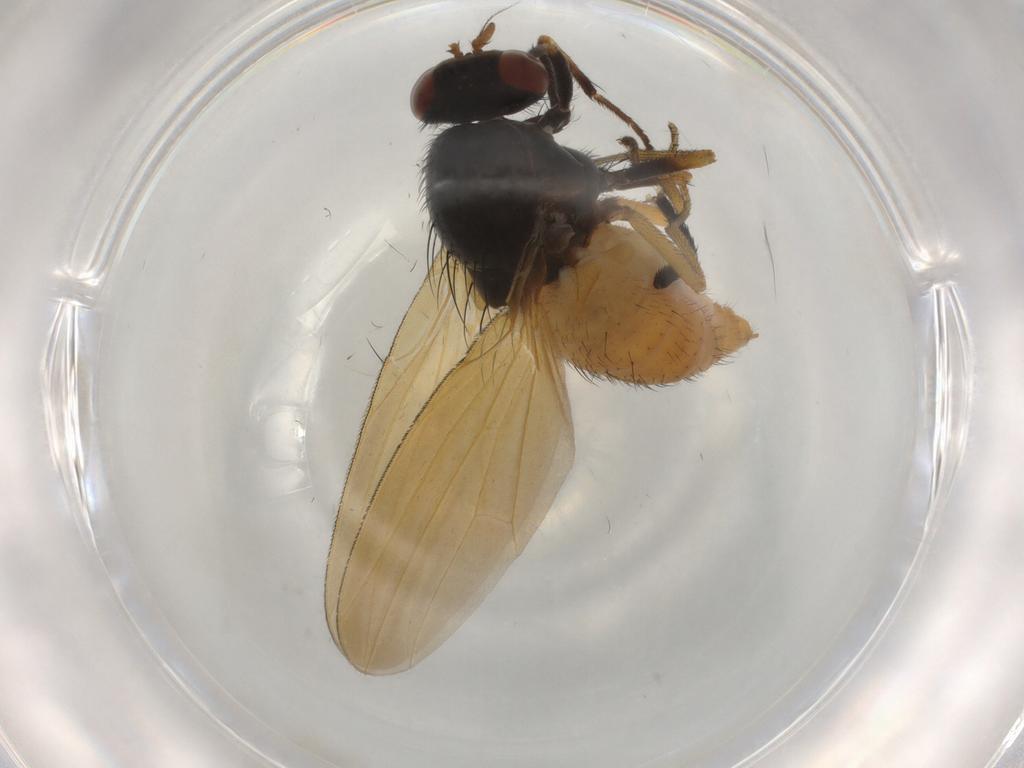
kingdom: Animalia
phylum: Arthropoda
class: Insecta
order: Diptera
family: Muscidae
